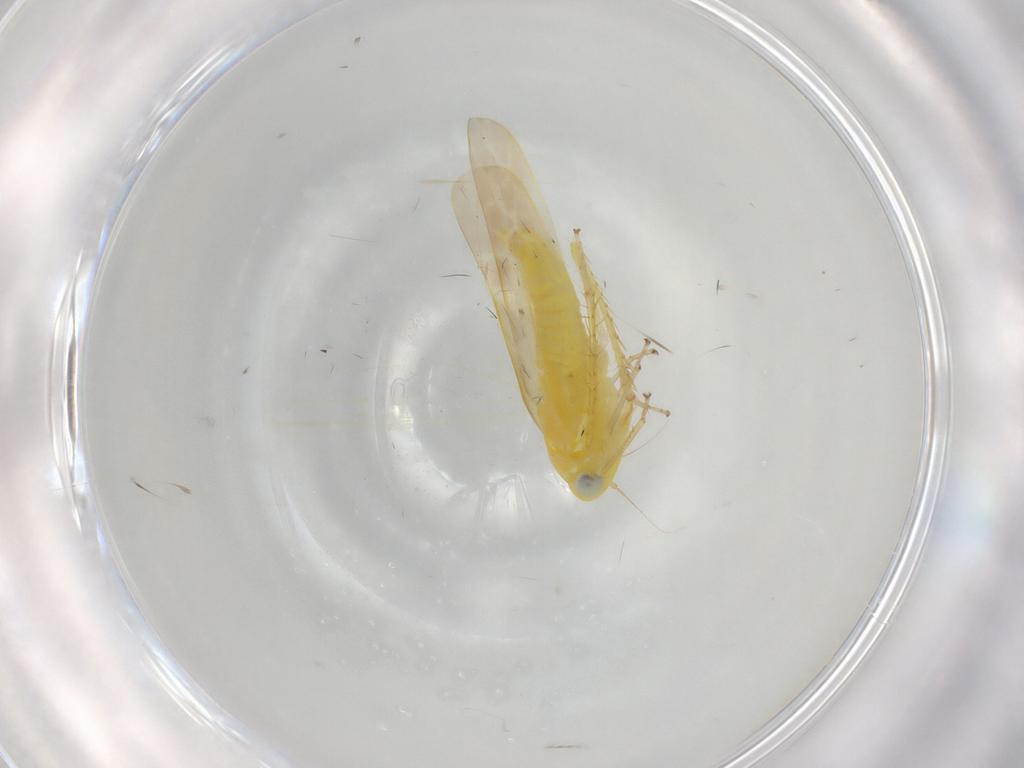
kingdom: Animalia
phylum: Arthropoda
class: Insecta
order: Hemiptera
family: Cicadellidae
